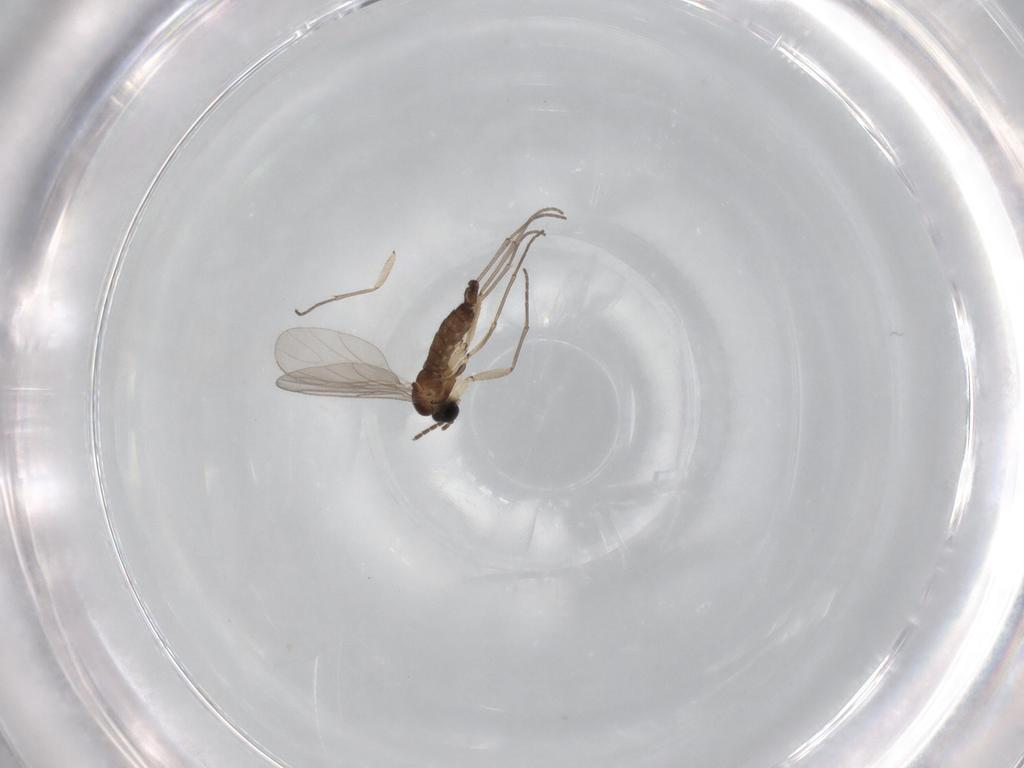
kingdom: Animalia
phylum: Arthropoda
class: Insecta
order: Diptera
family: Sciaridae
